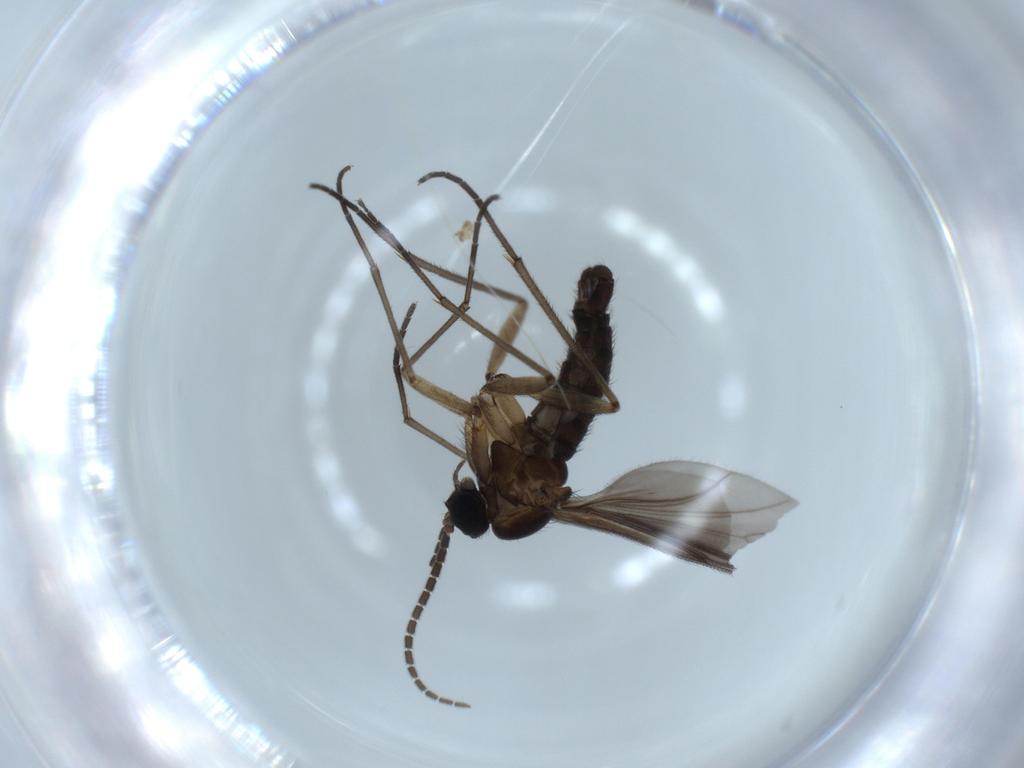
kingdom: Animalia
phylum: Arthropoda
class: Insecta
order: Diptera
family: Sciaridae
